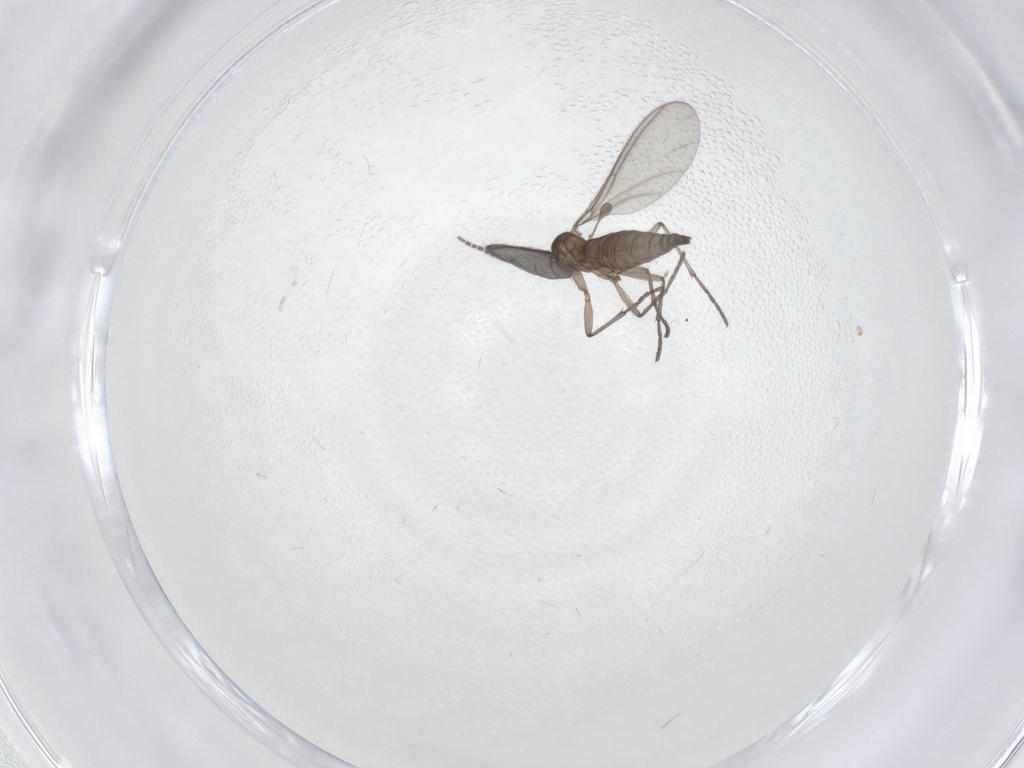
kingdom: Animalia
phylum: Arthropoda
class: Insecta
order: Diptera
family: Sciaridae
